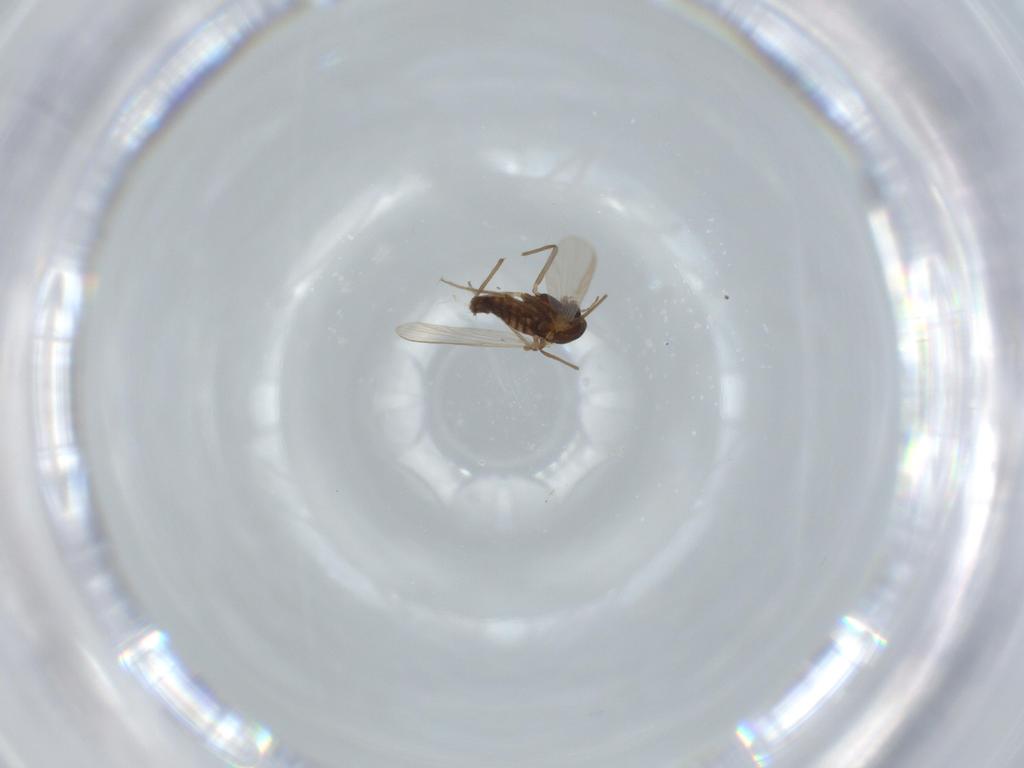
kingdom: Animalia
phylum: Arthropoda
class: Insecta
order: Diptera
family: Chironomidae
